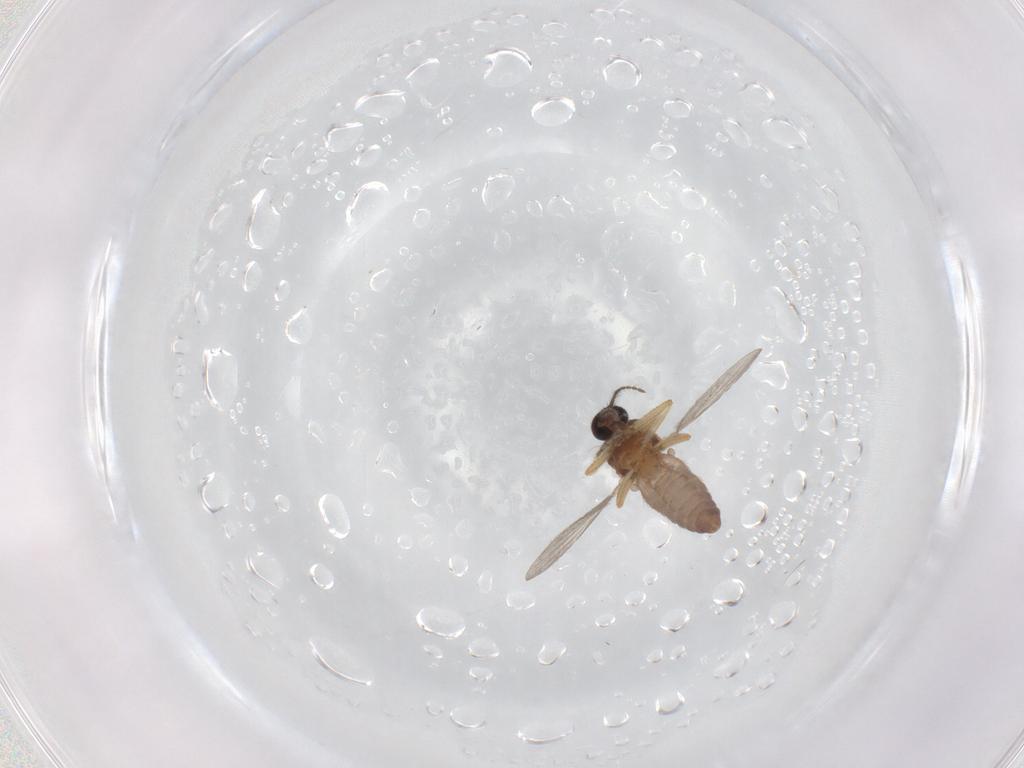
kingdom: Animalia
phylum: Arthropoda
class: Insecta
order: Diptera
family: Ceratopogonidae
